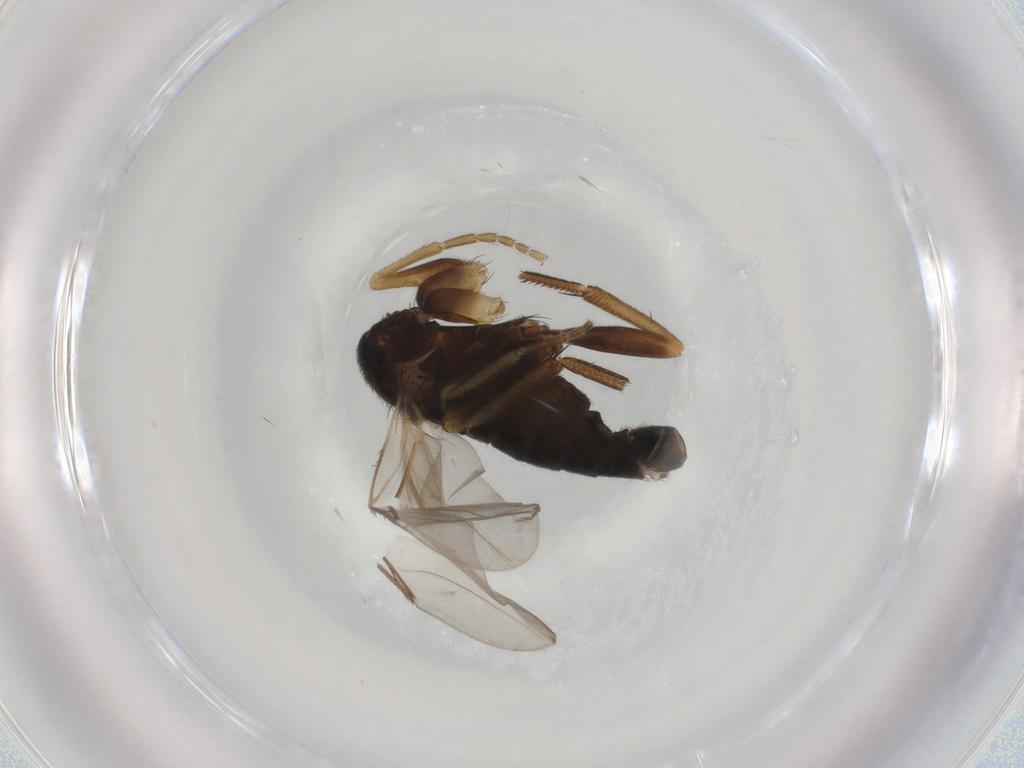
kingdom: Animalia
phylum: Arthropoda
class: Insecta
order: Diptera
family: Phoridae
